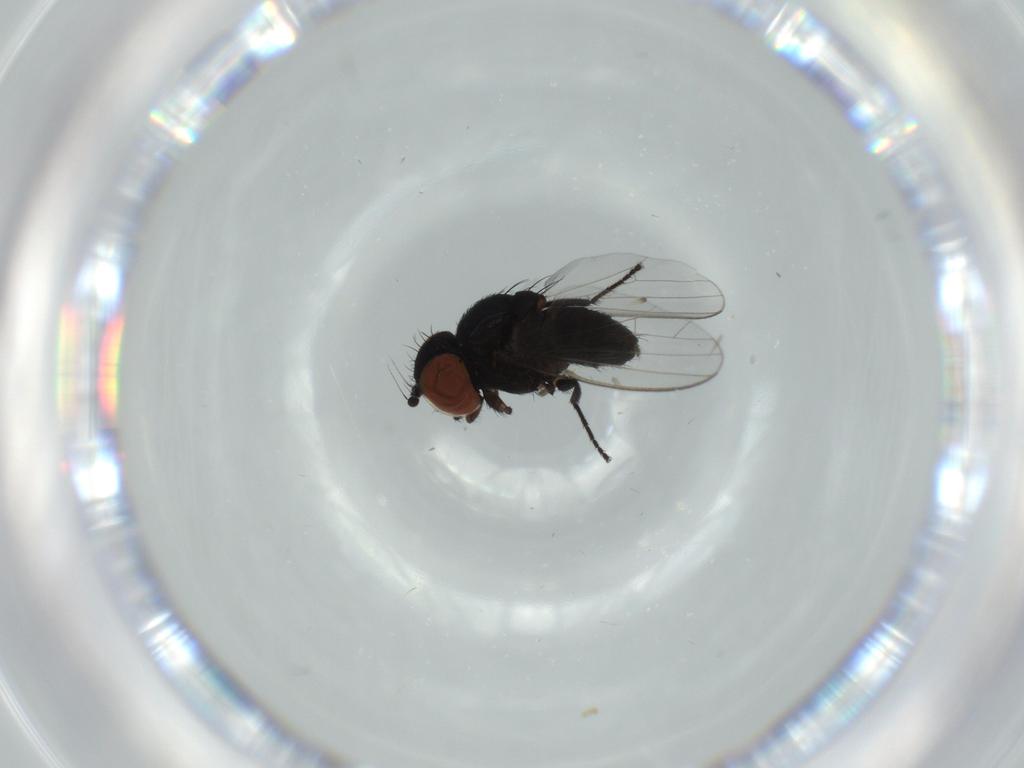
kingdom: Animalia
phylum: Arthropoda
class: Insecta
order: Diptera
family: Milichiidae
